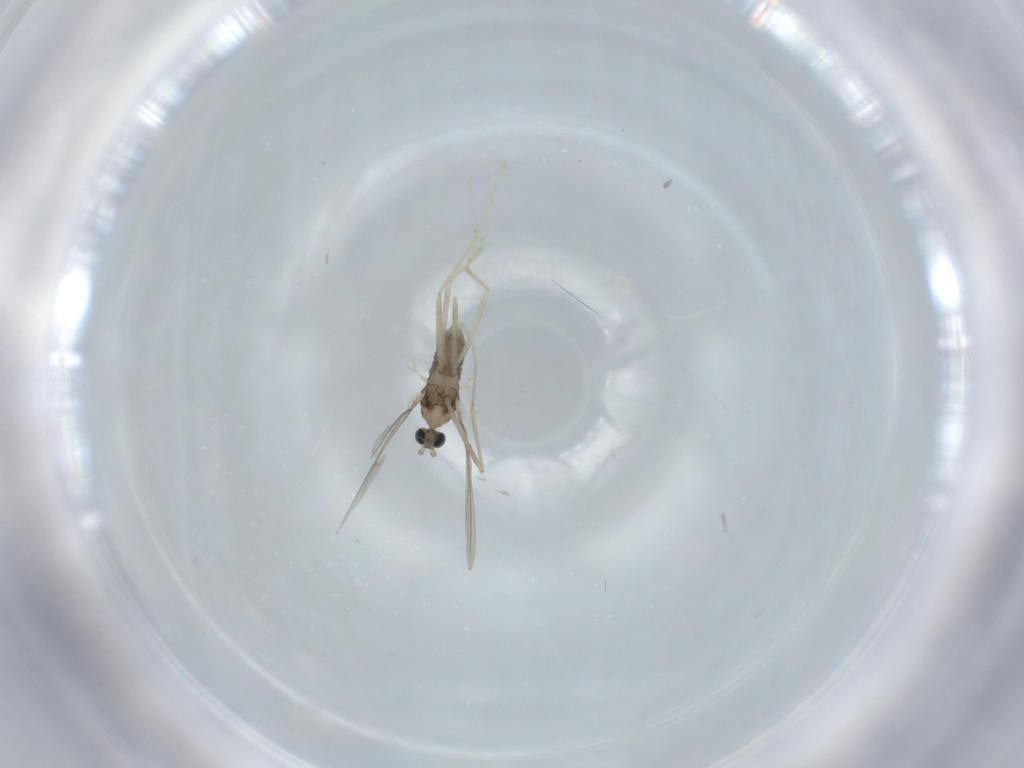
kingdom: Animalia
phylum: Arthropoda
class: Insecta
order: Diptera
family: Cecidomyiidae
